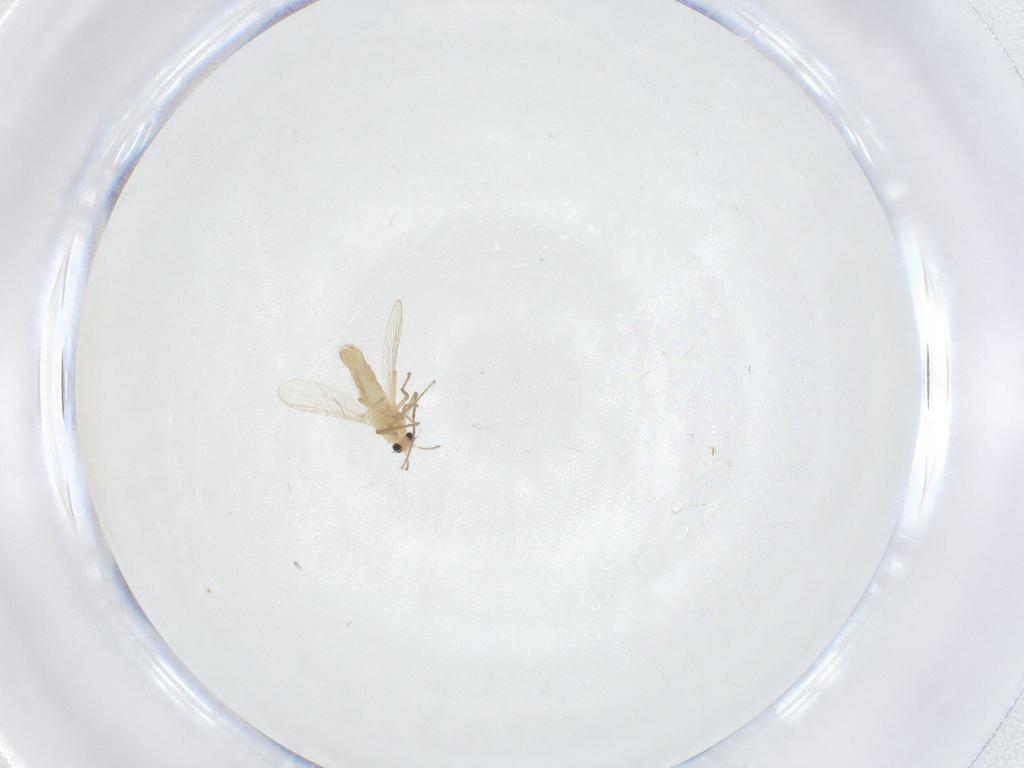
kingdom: Animalia
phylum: Arthropoda
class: Insecta
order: Diptera
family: Chironomidae
